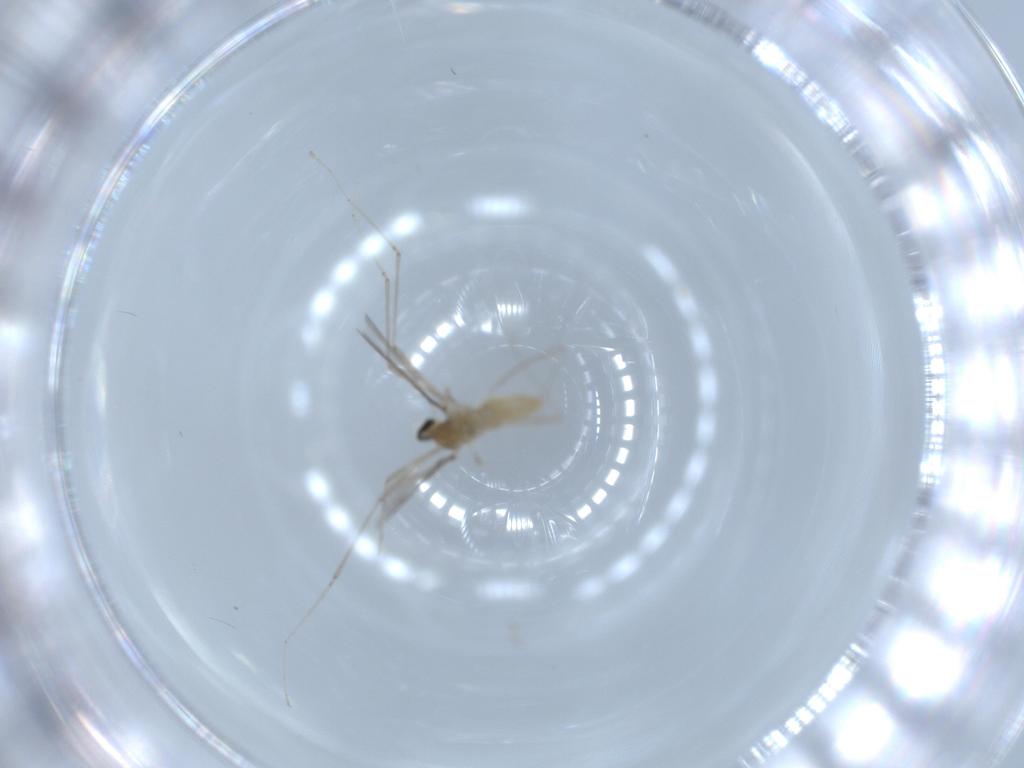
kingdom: Animalia
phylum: Arthropoda
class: Insecta
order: Diptera
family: Cecidomyiidae
